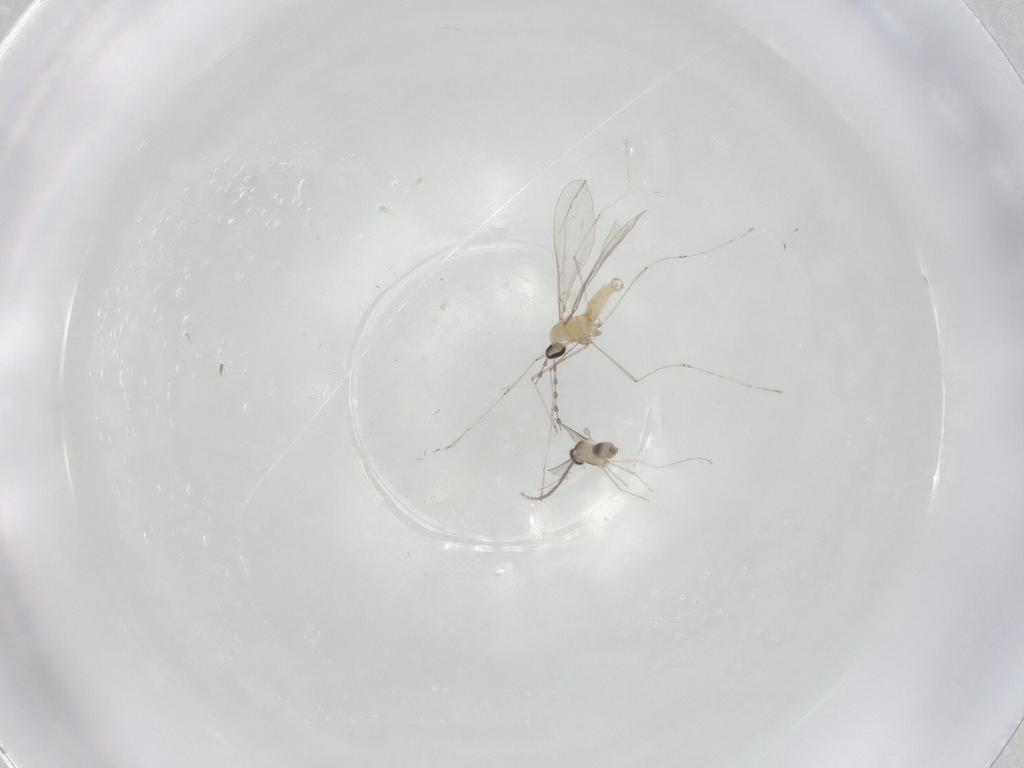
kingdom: Animalia
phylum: Arthropoda
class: Insecta
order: Diptera
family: Cecidomyiidae
